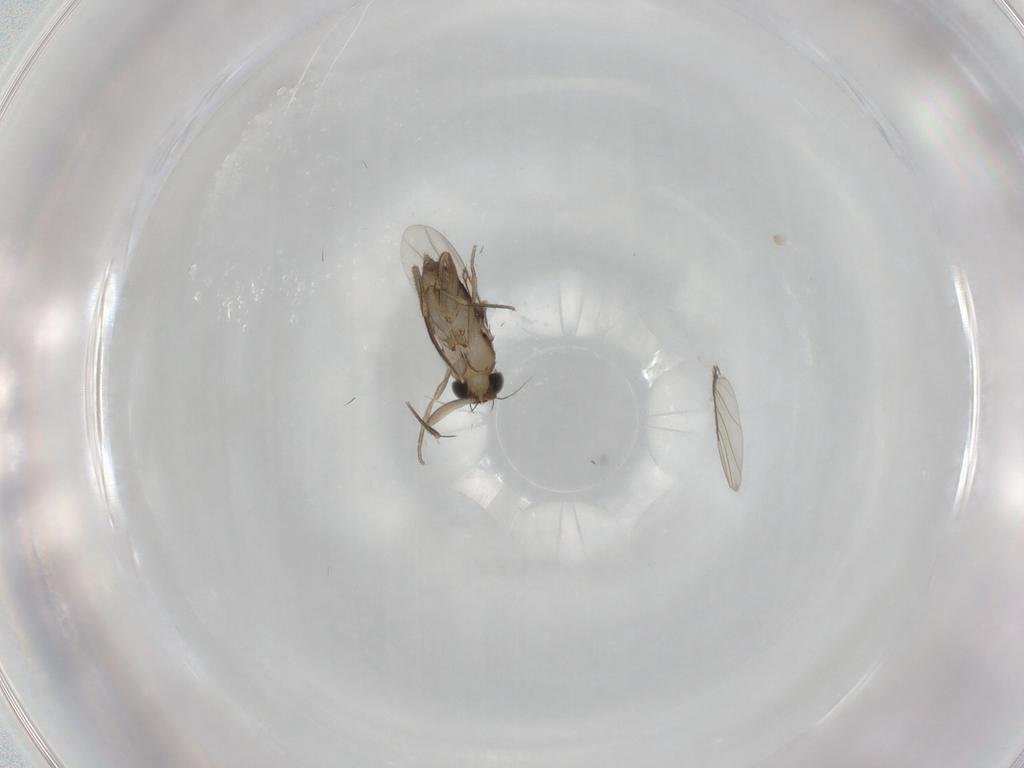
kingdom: Animalia
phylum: Arthropoda
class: Insecta
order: Diptera
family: Phoridae
